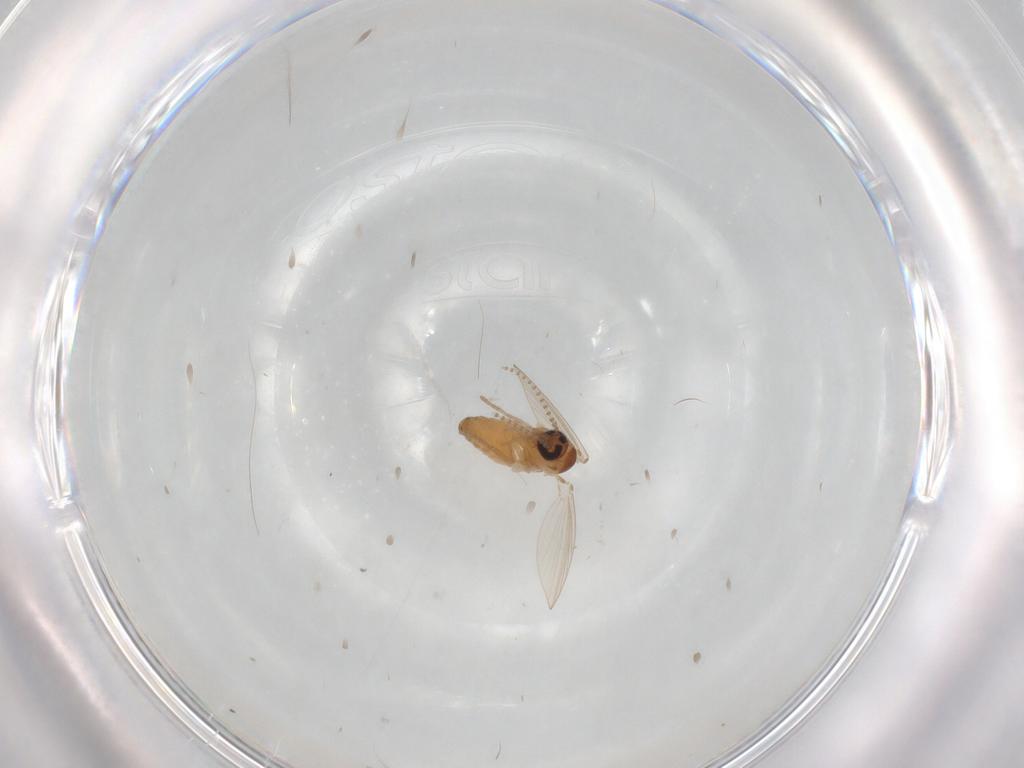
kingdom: Animalia
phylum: Arthropoda
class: Insecta
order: Diptera
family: Psychodidae
